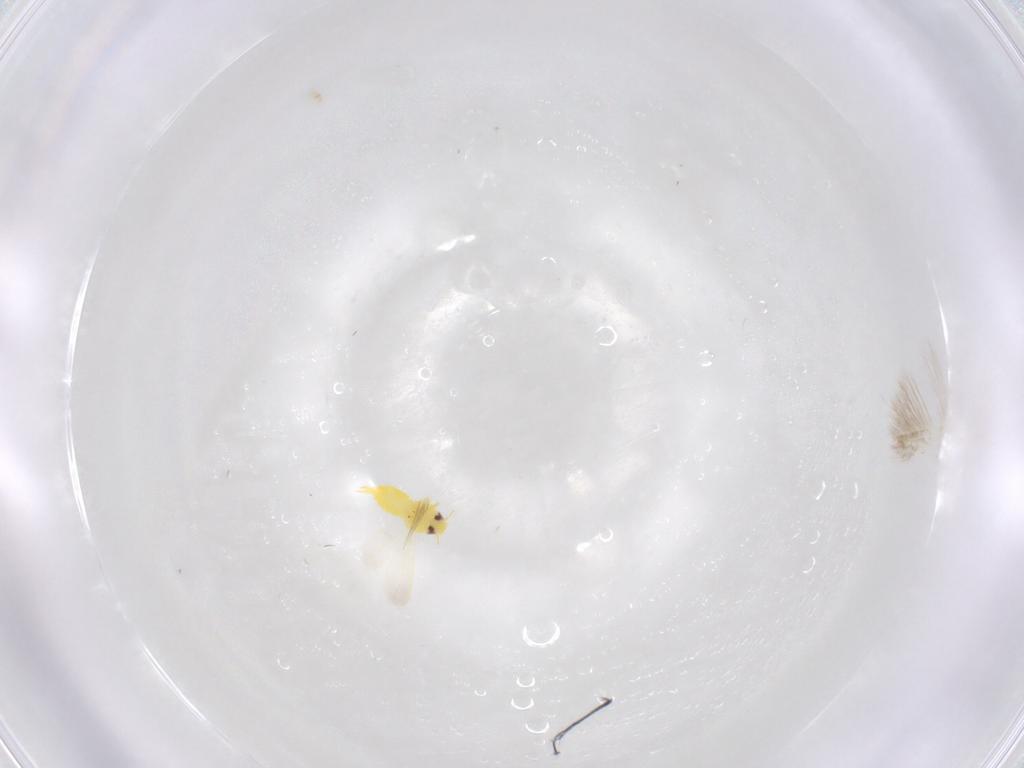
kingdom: Animalia
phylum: Arthropoda
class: Insecta
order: Hemiptera
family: Aleyrodidae
